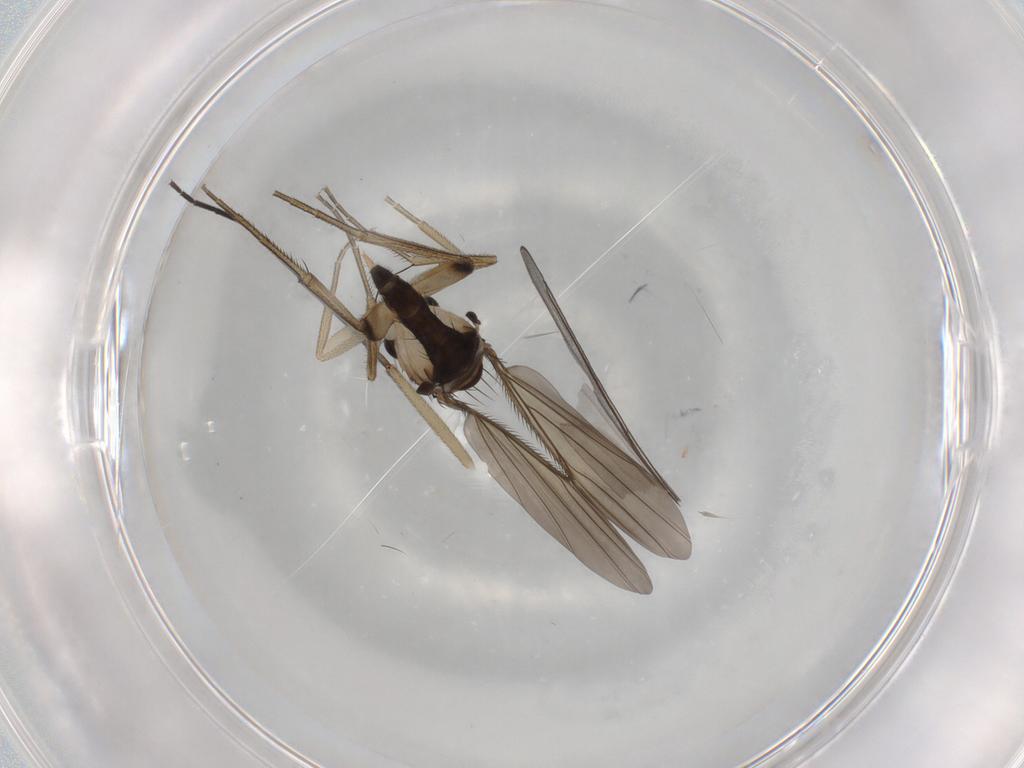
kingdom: Animalia
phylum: Arthropoda
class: Insecta
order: Diptera
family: Phoridae
